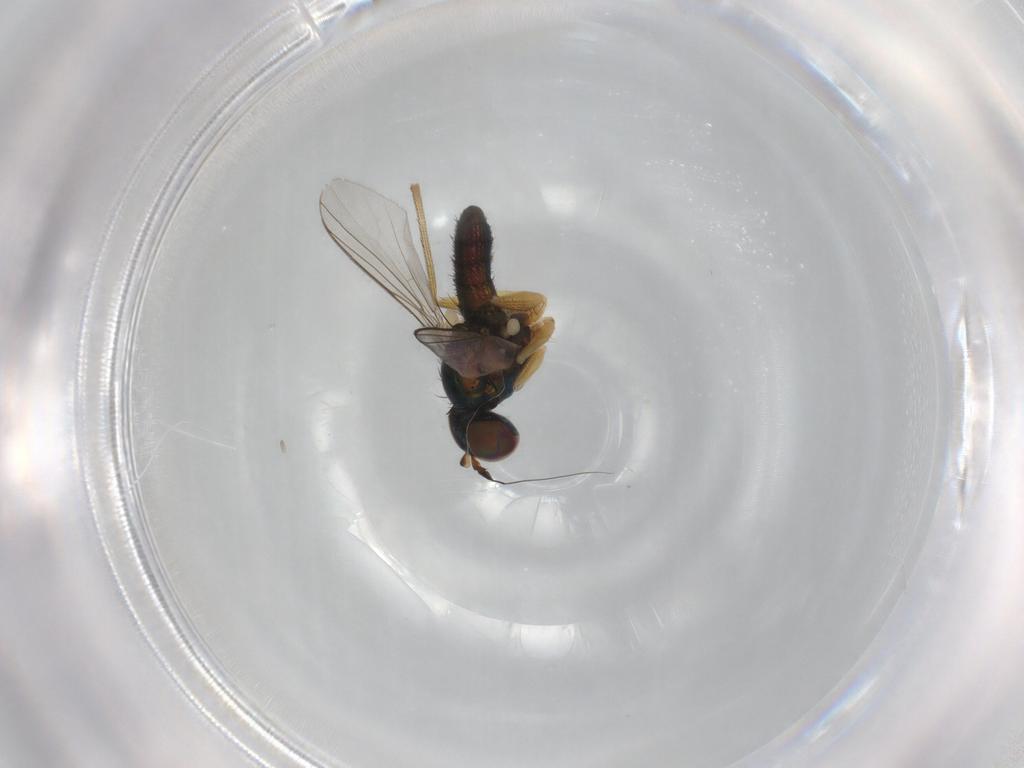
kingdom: Animalia
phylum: Arthropoda
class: Insecta
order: Diptera
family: Dolichopodidae
